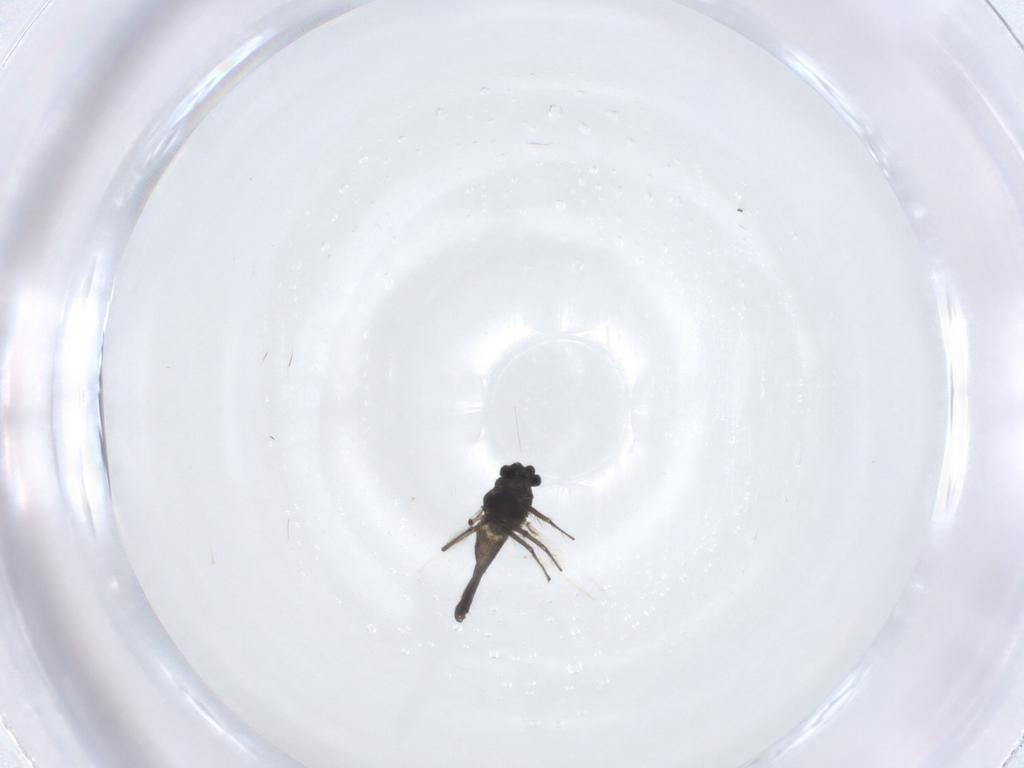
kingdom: Animalia
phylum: Arthropoda
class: Insecta
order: Diptera
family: Chironomidae
